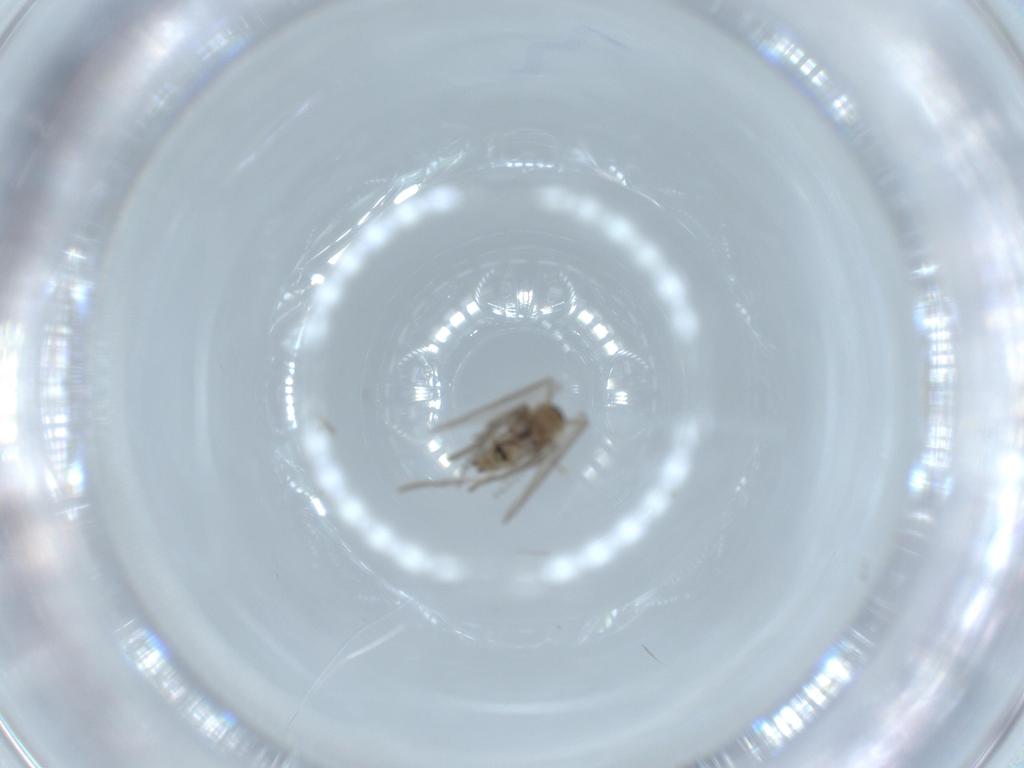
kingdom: Animalia
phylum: Arthropoda
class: Insecta
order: Diptera
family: Psychodidae
